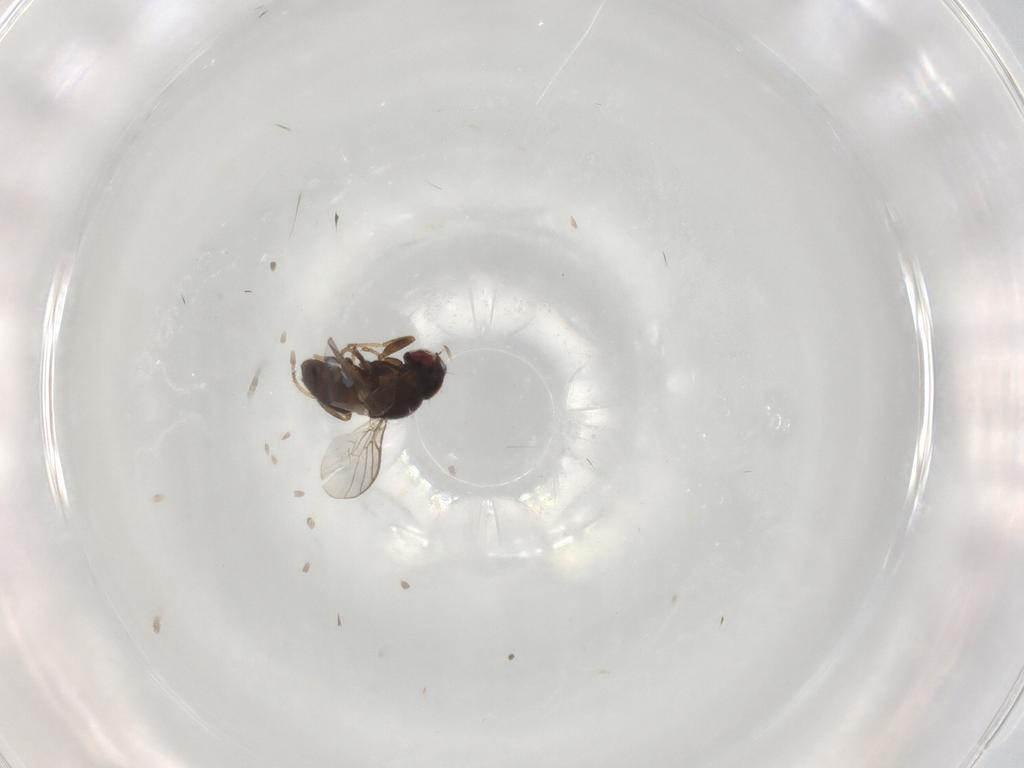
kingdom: Animalia
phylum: Arthropoda
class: Insecta
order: Diptera
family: Chloropidae
